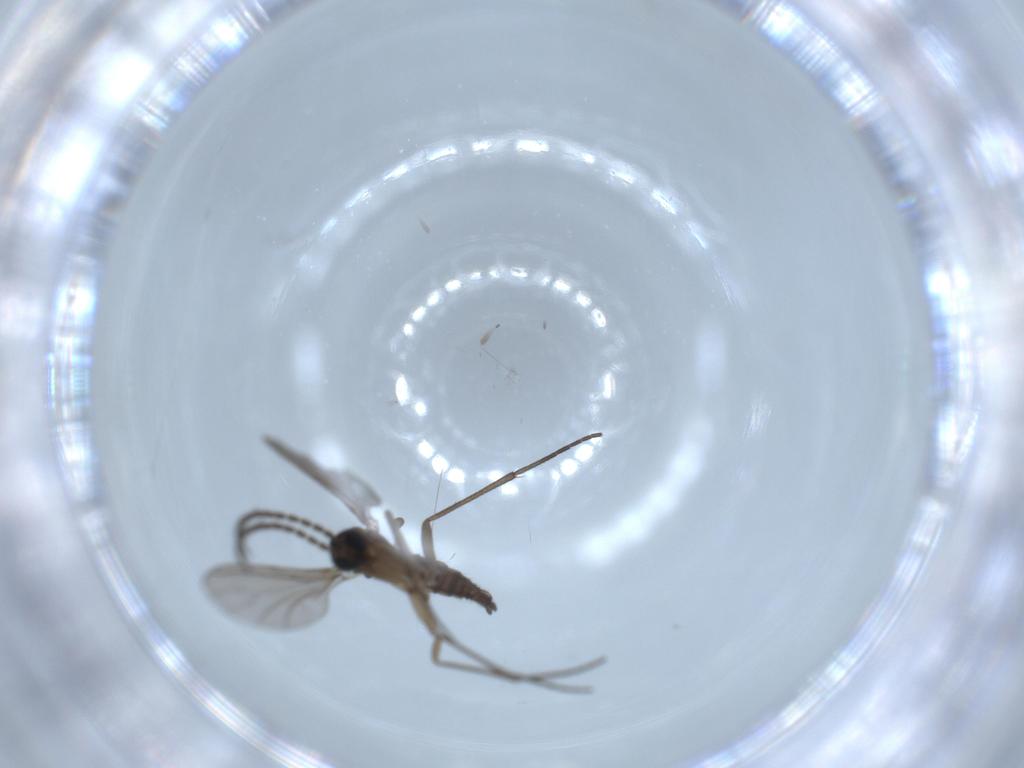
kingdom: Animalia
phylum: Arthropoda
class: Insecta
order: Diptera
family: Sciaridae
